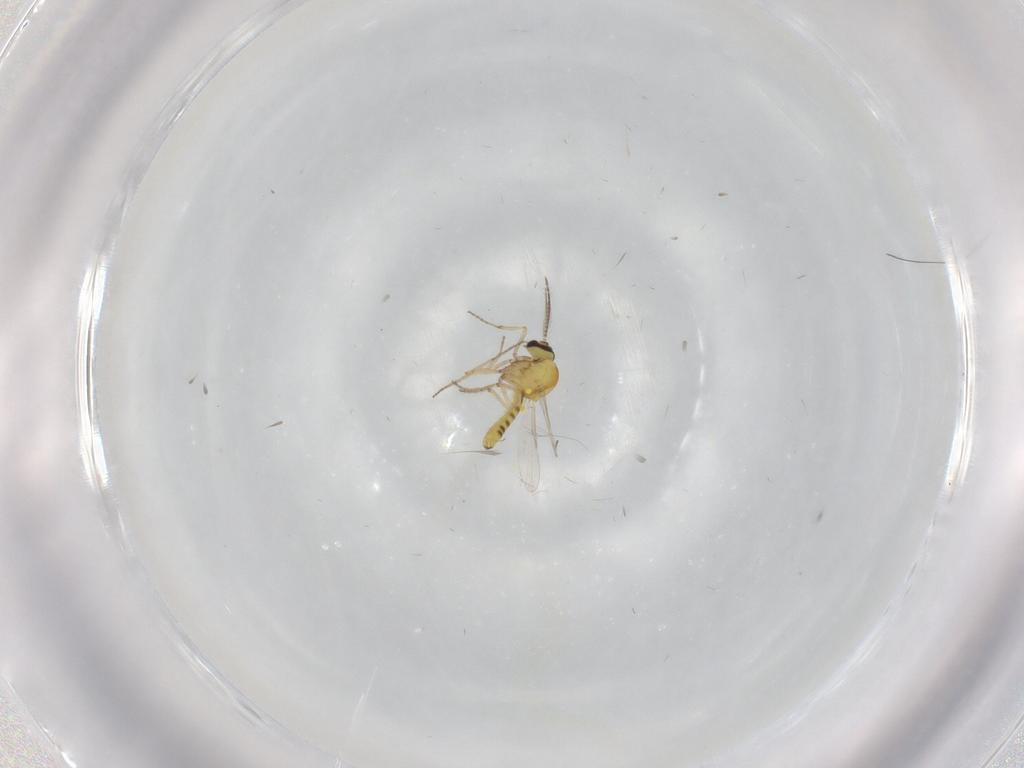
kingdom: Animalia
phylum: Arthropoda
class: Insecta
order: Diptera
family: Ceratopogonidae
